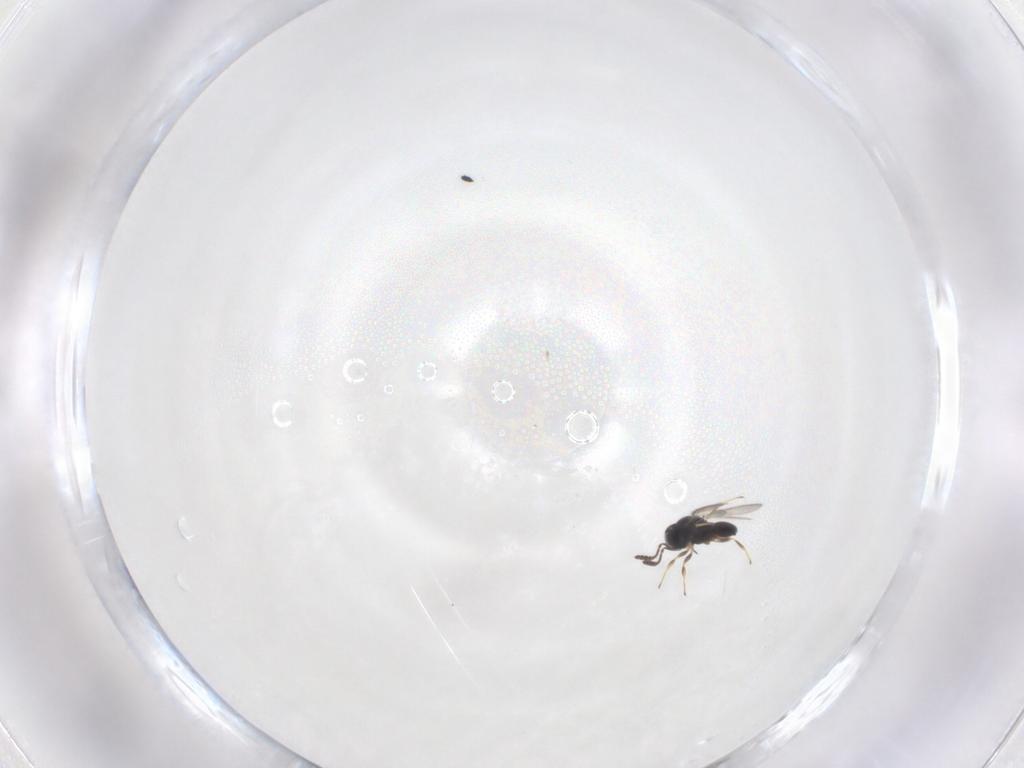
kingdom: Animalia
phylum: Arthropoda
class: Insecta
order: Hymenoptera
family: Scelionidae
